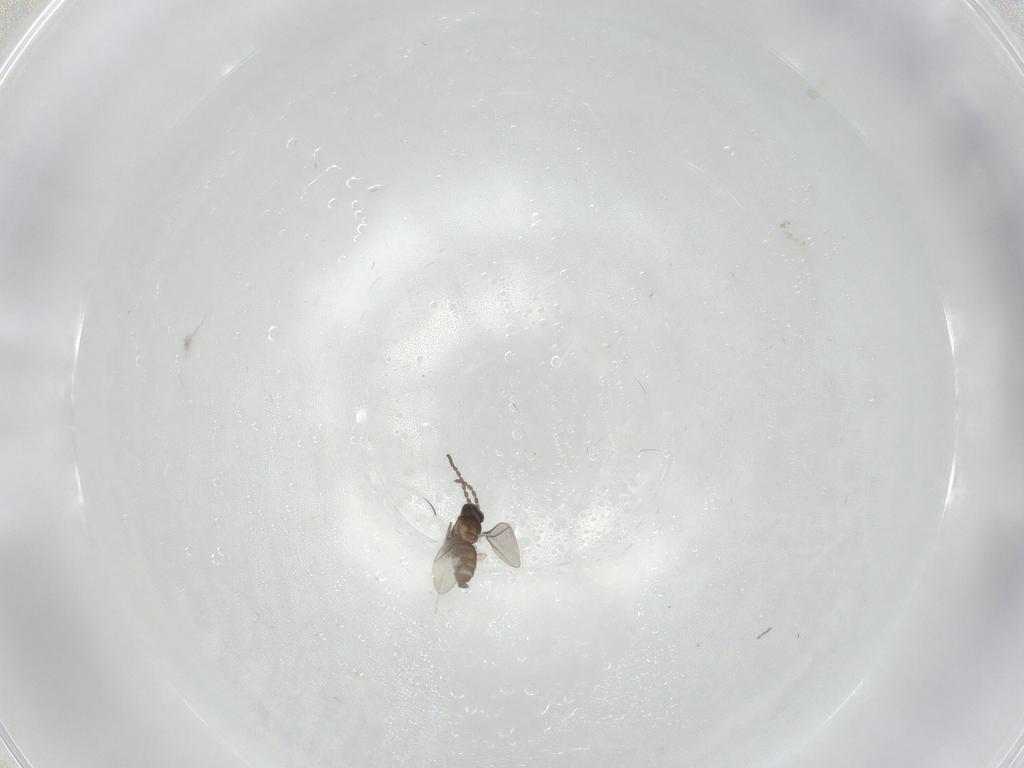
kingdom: Animalia
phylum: Arthropoda
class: Insecta
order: Diptera
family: Cecidomyiidae
